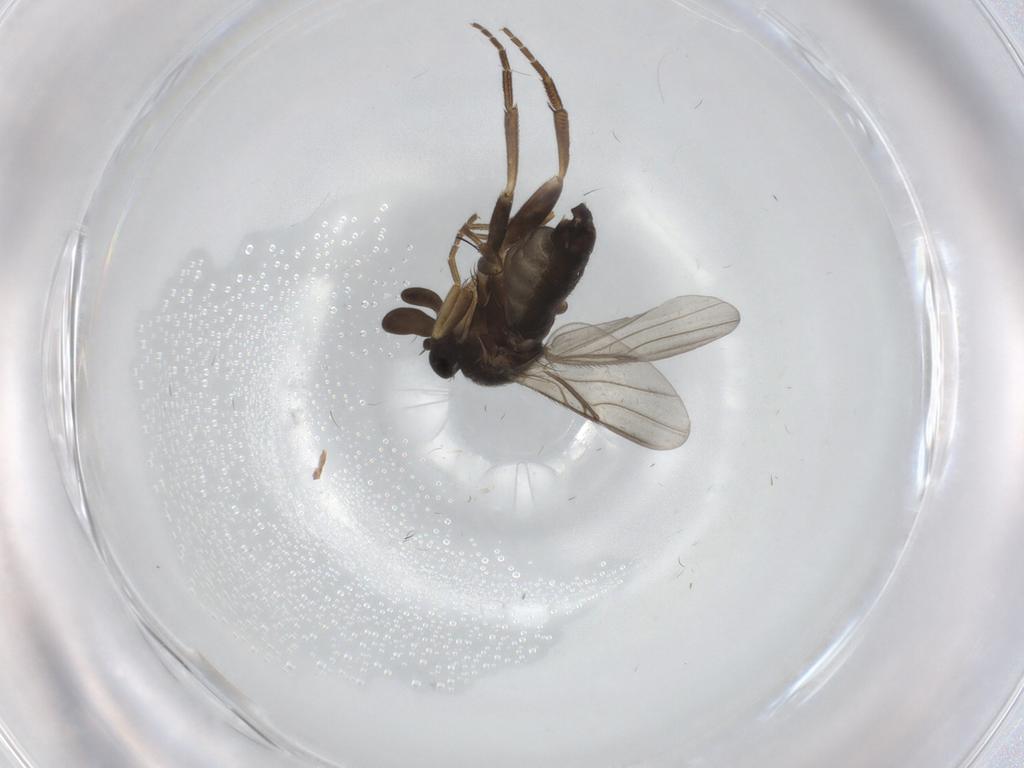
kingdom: Animalia
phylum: Arthropoda
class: Insecta
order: Diptera
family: Phoridae
